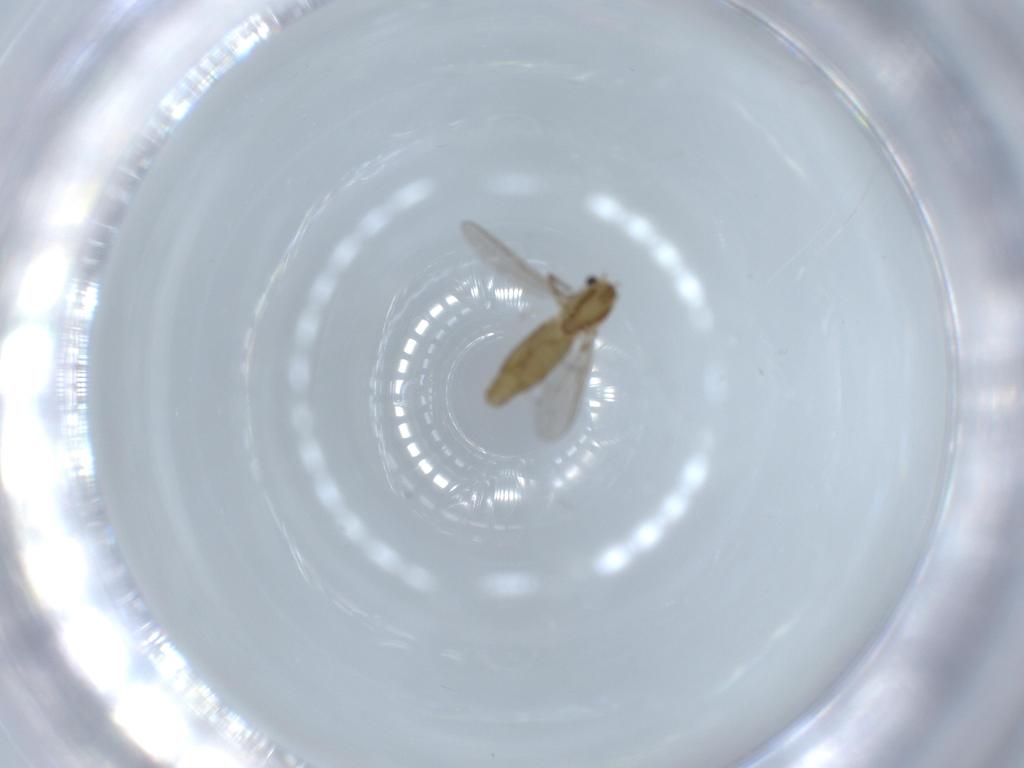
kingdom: Animalia
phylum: Arthropoda
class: Insecta
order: Diptera
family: Chironomidae
